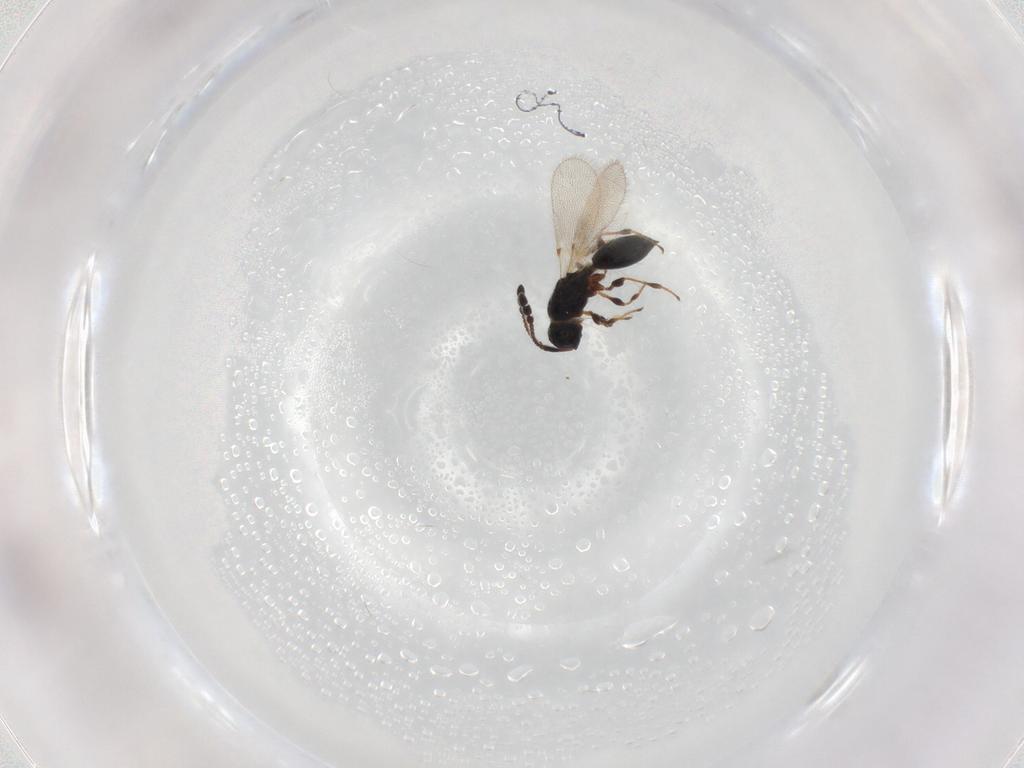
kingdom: Animalia
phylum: Arthropoda
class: Insecta
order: Hymenoptera
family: Diapriidae
